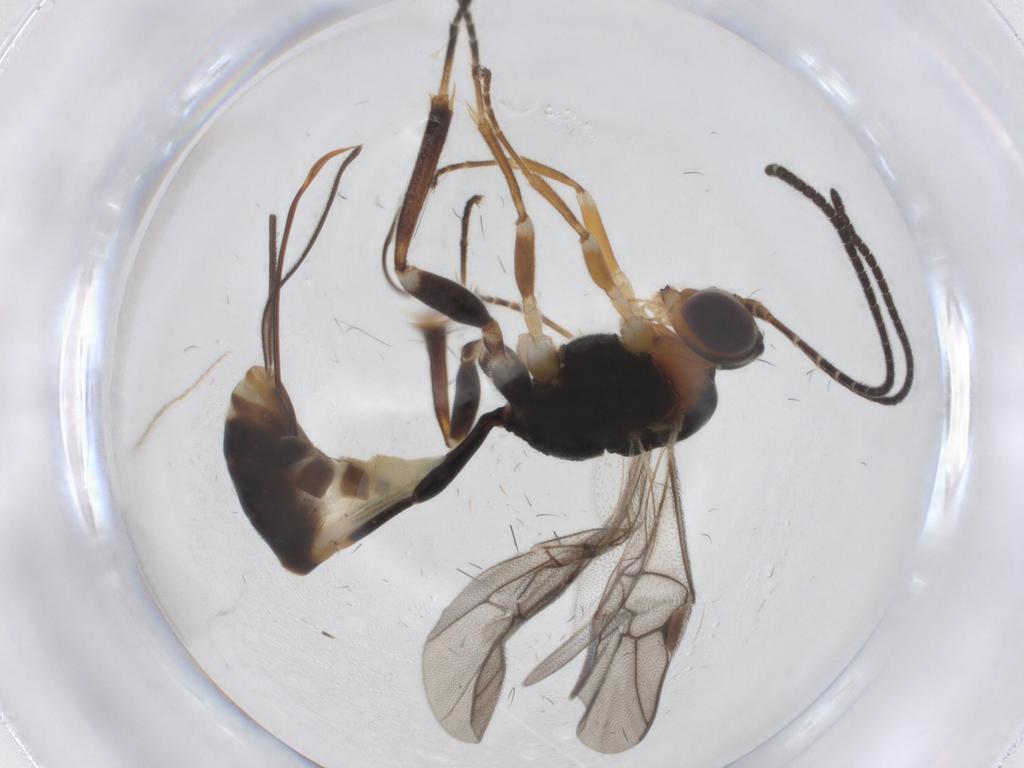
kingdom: Animalia
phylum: Arthropoda
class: Insecta
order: Hymenoptera
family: Ichneumonidae
